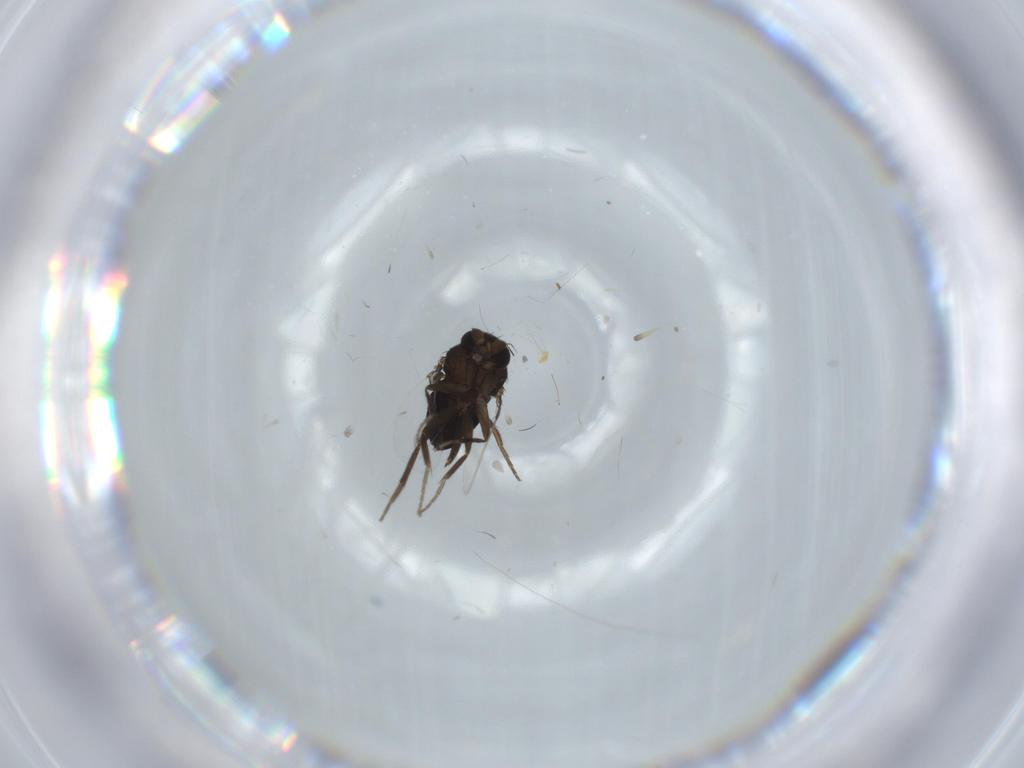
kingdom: Animalia
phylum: Arthropoda
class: Insecta
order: Diptera
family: Phoridae
